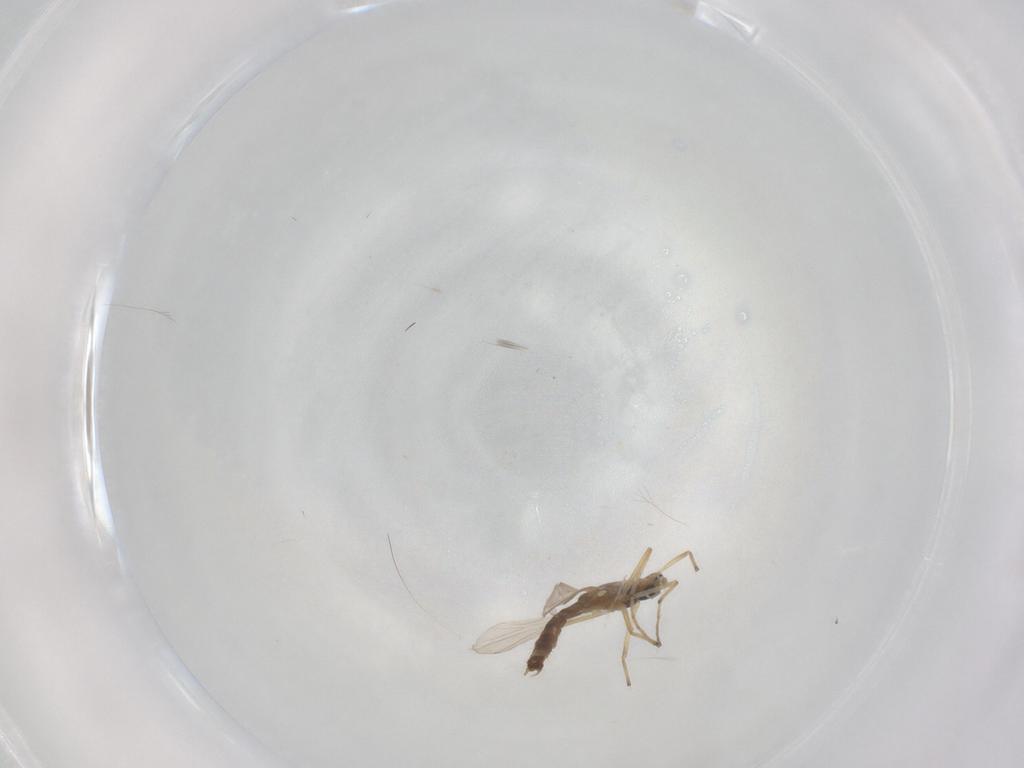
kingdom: Animalia
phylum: Arthropoda
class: Insecta
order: Diptera
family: Chironomidae
